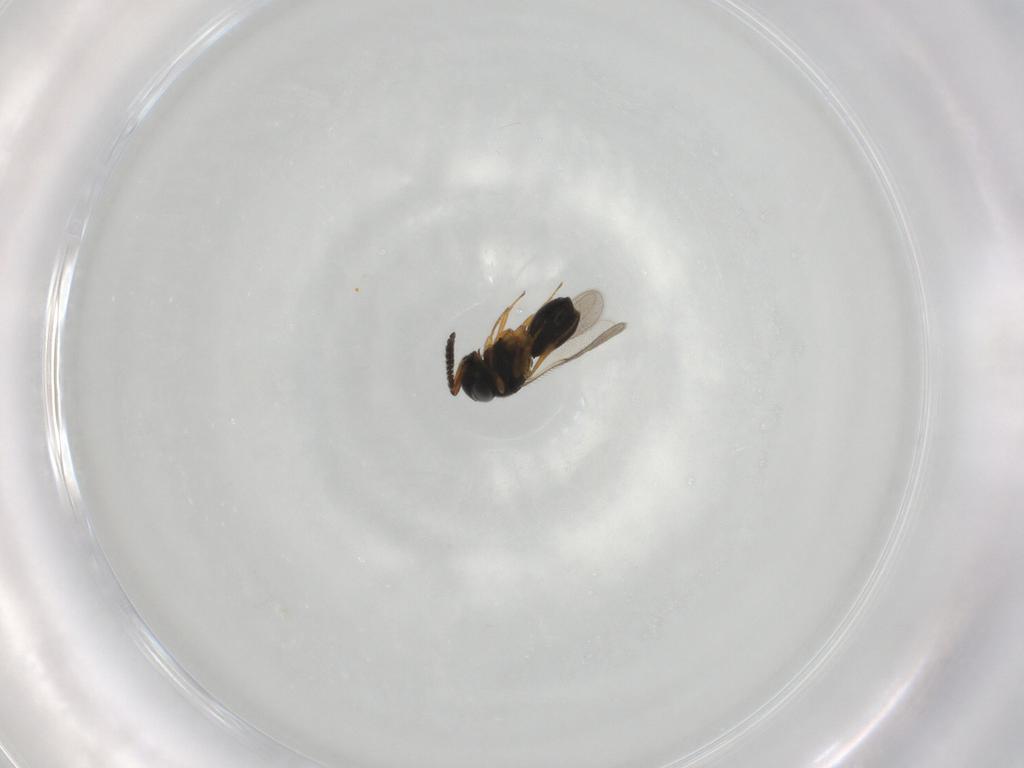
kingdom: Animalia
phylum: Arthropoda
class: Insecta
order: Hymenoptera
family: Scelionidae
